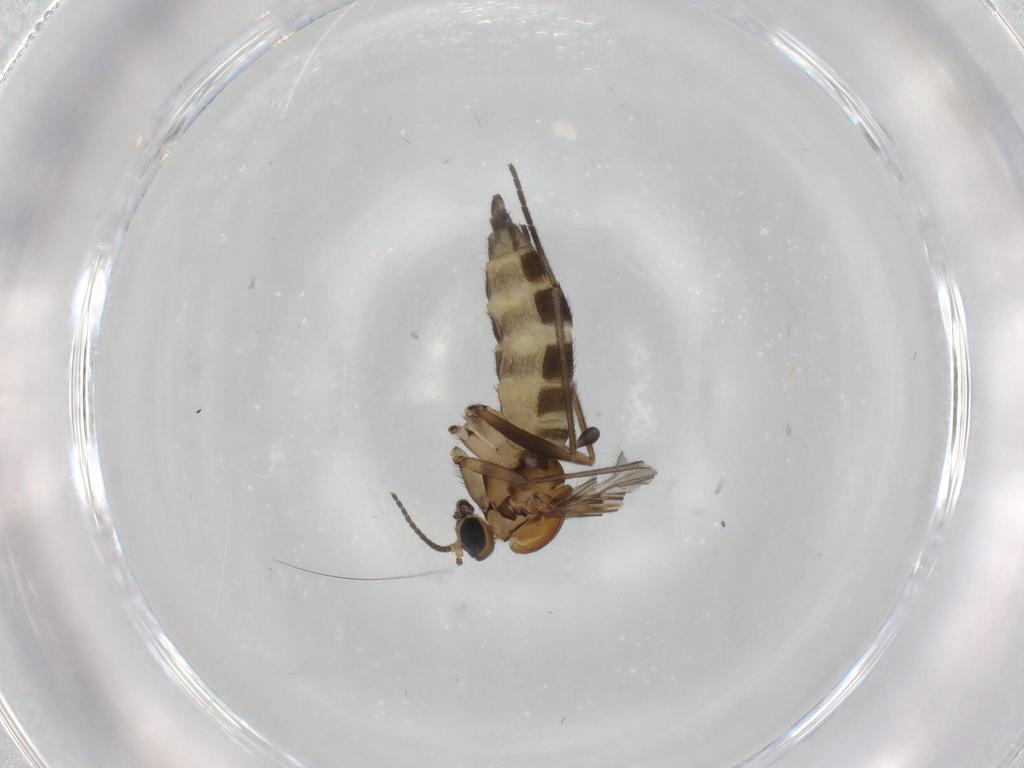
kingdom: Animalia
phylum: Arthropoda
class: Insecta
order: Diptera
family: Sciaridae
